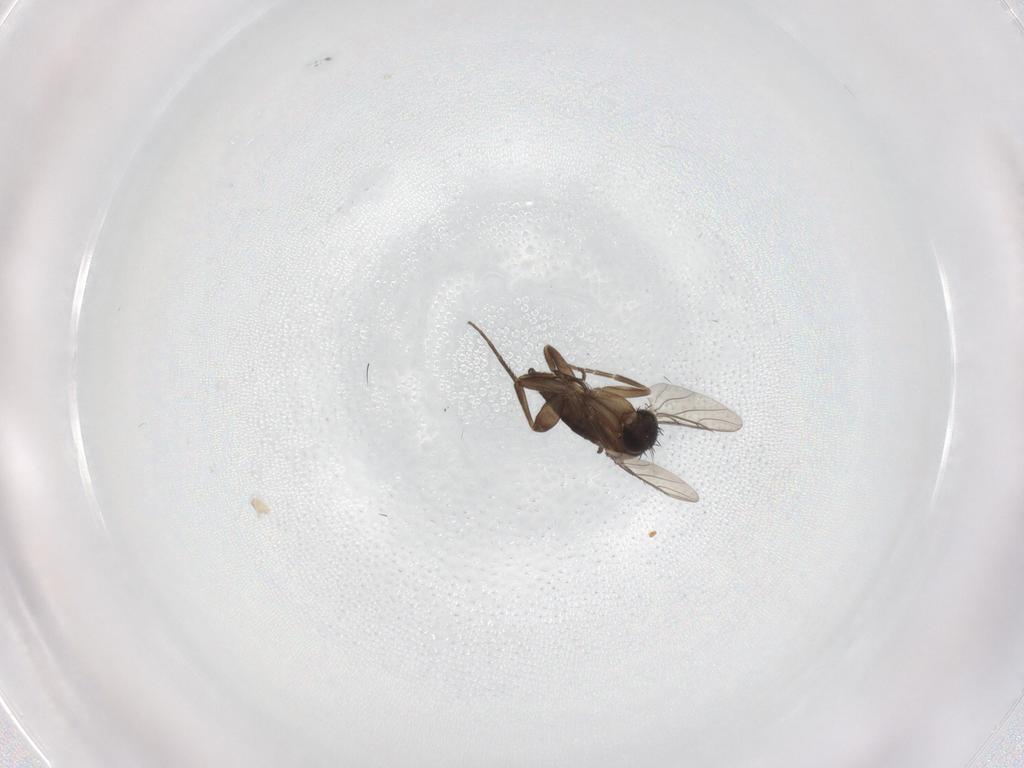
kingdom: Animalia
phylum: Arthropoda
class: Insecta
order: Diptera
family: Phoridae
